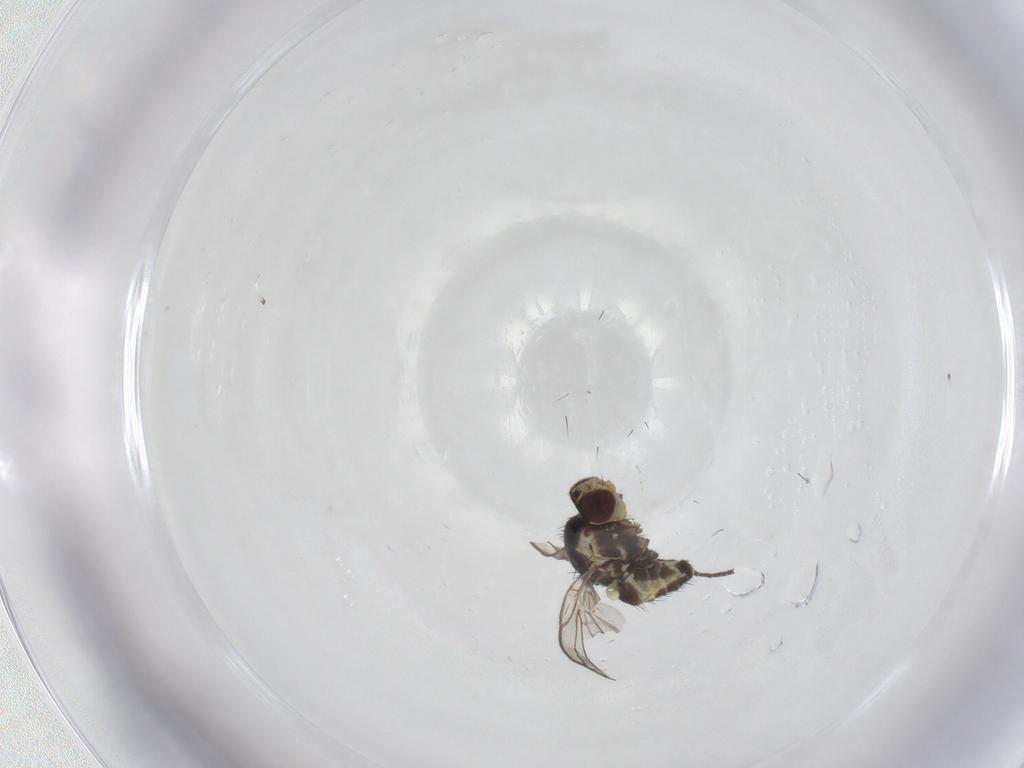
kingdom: Animalia
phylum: Arthropoda
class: Insecta
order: Diptera
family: Agromyzidae
